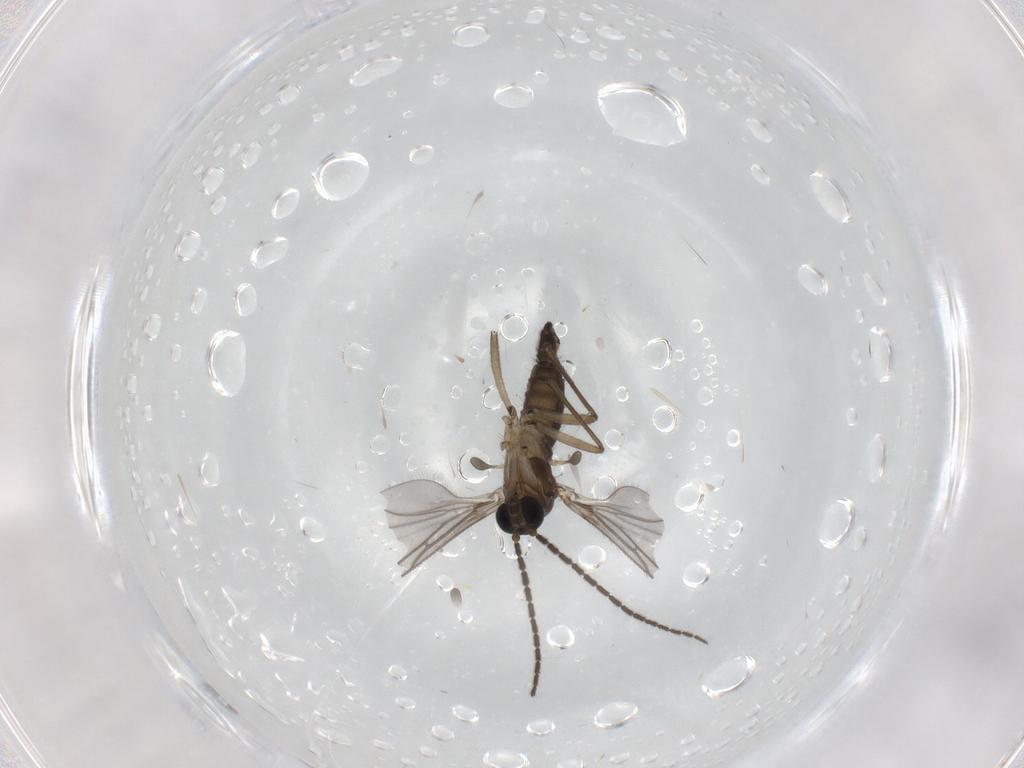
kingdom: Animalia
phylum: Arthropoda
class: Insecta
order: Diptera
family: Sciaridae
